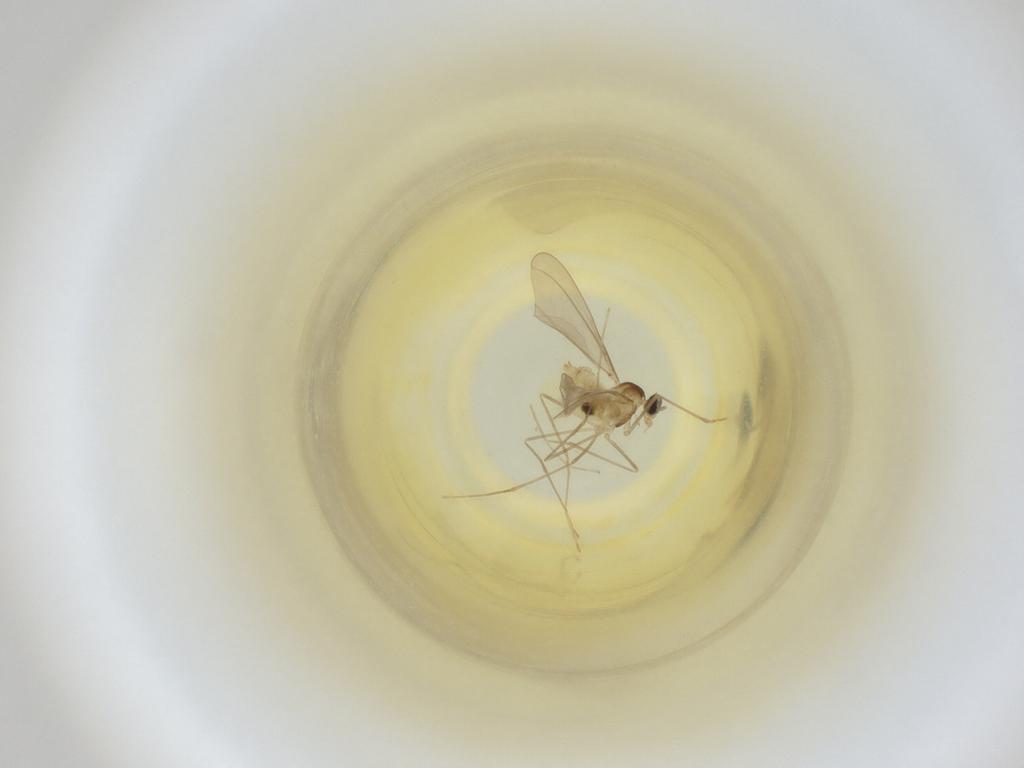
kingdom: Animalia
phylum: Arthropoda
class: Insecta
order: Diptera
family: Cecidomyiidae
